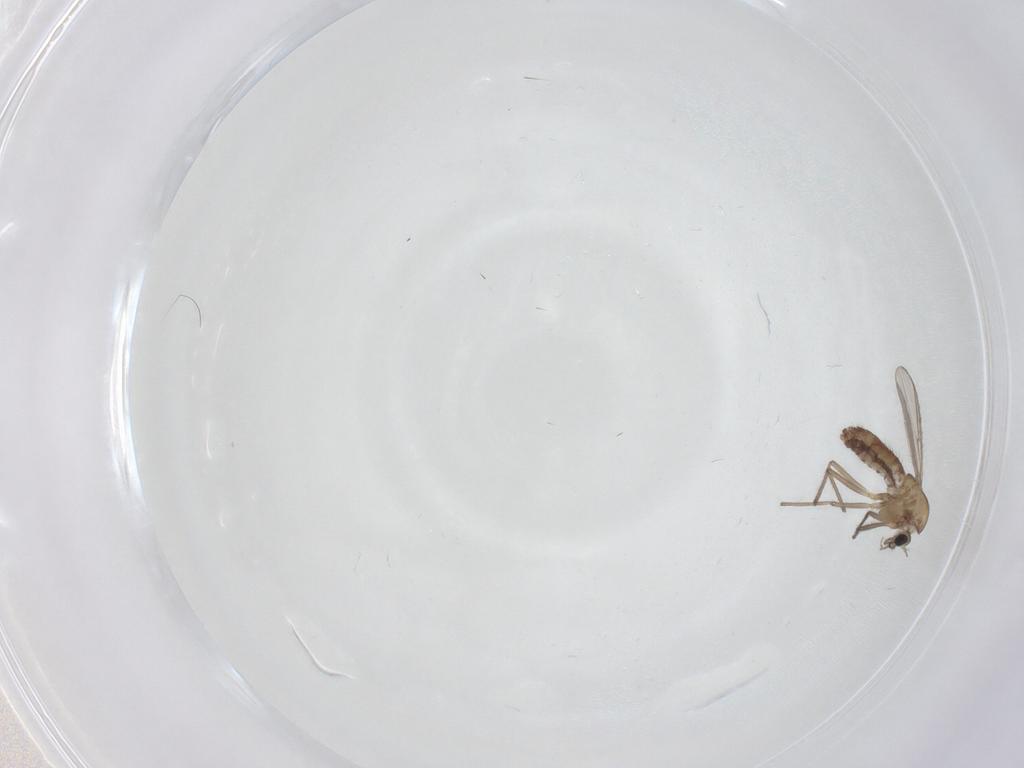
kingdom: Animalia
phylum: Arthropoda
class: Insecta
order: Diptera
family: Chironomidae
